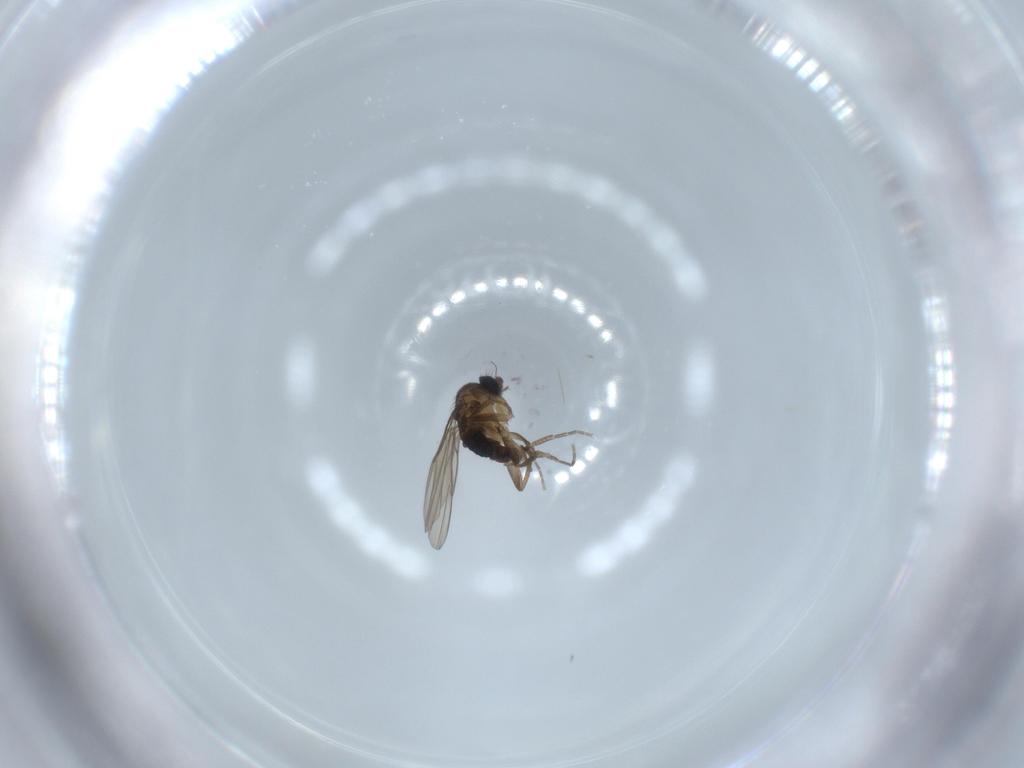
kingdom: Animalia
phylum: Arthropoda
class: Insecta
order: Diptera
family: Phoridae
